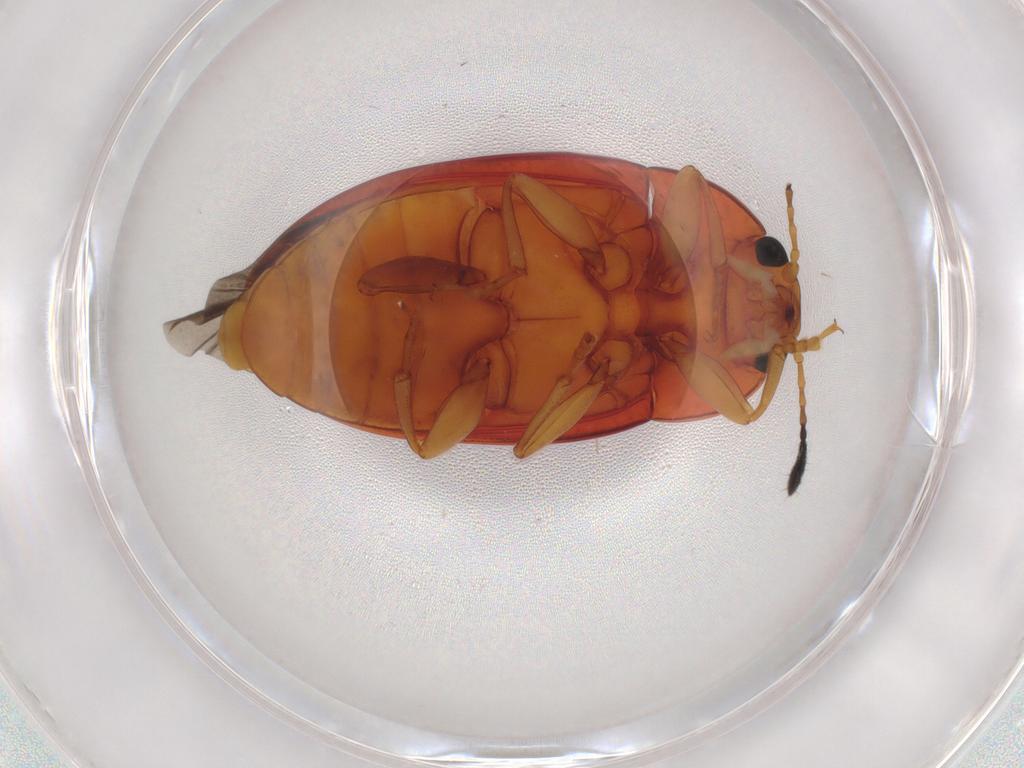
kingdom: Animalia
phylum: Arthropoda
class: Insecta
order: Coleoptera
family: Erotylidae
